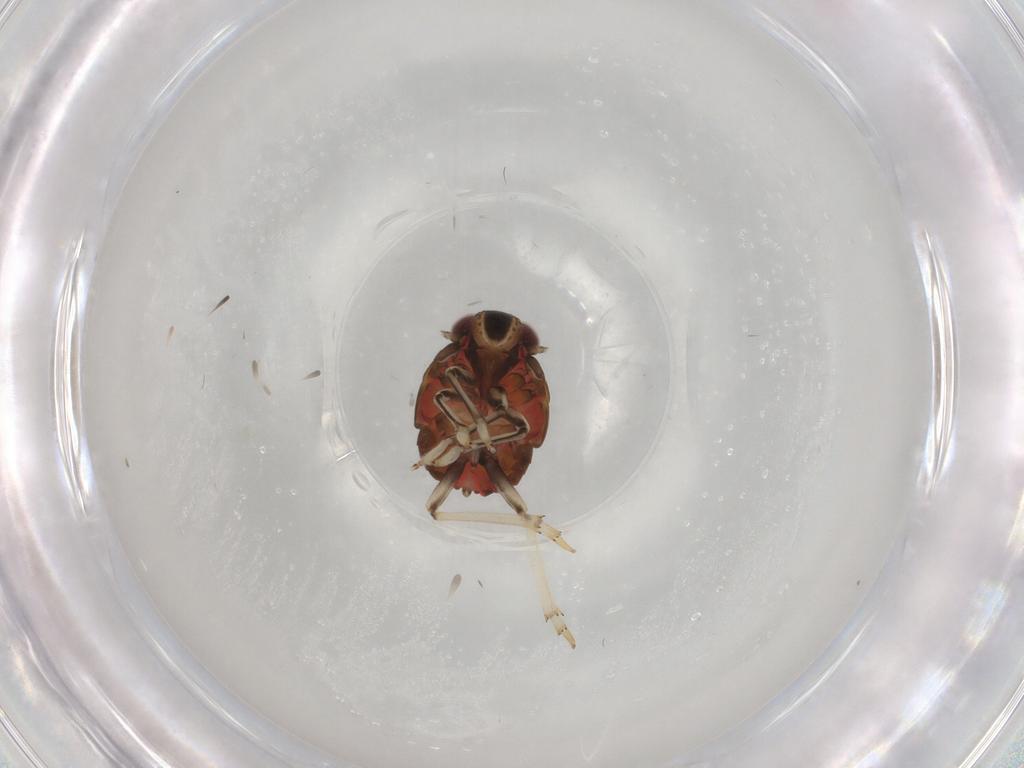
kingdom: Animalia
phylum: Arthropoda
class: Insecta
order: Hemiptera
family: Issidae
